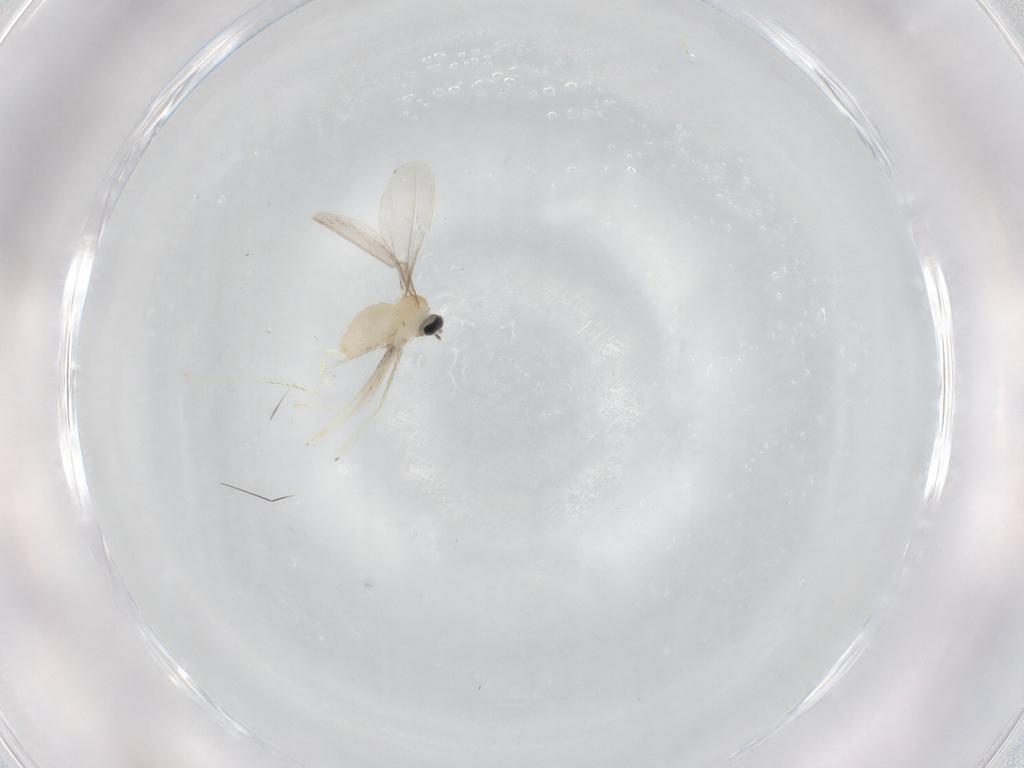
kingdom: Animalia
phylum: Arthropoda
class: Insecta
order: Diptera
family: Cecidomyiidae
